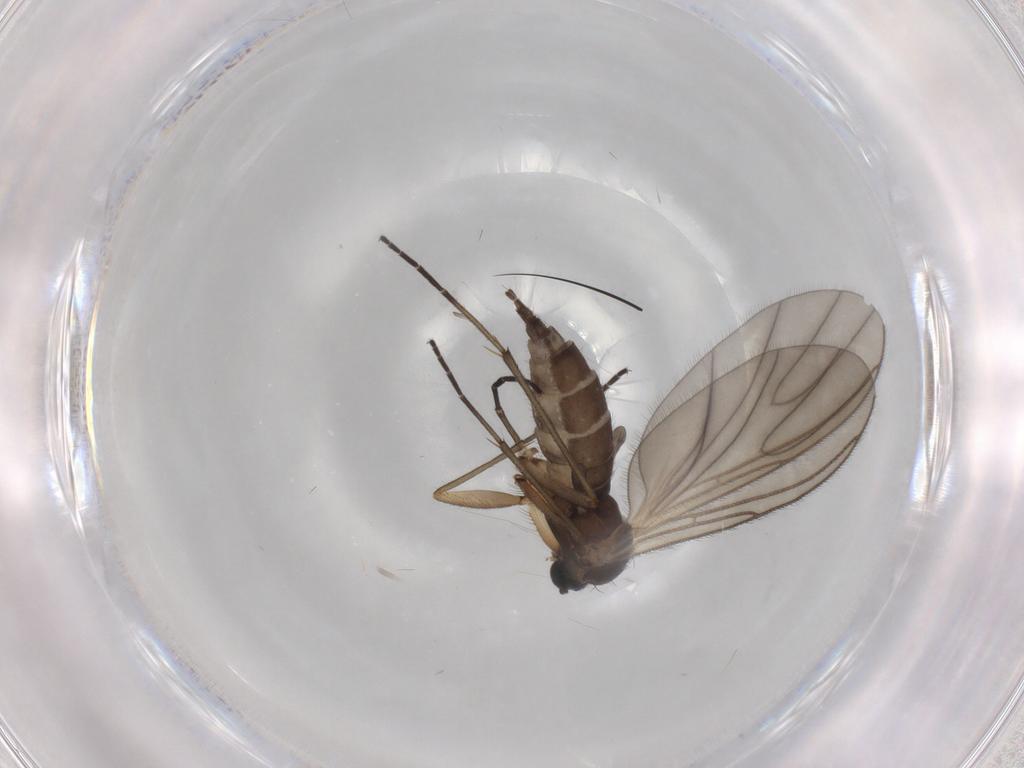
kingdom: Animalia
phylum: Arthropoda
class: Insecta
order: Diptera
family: Sciaridae
